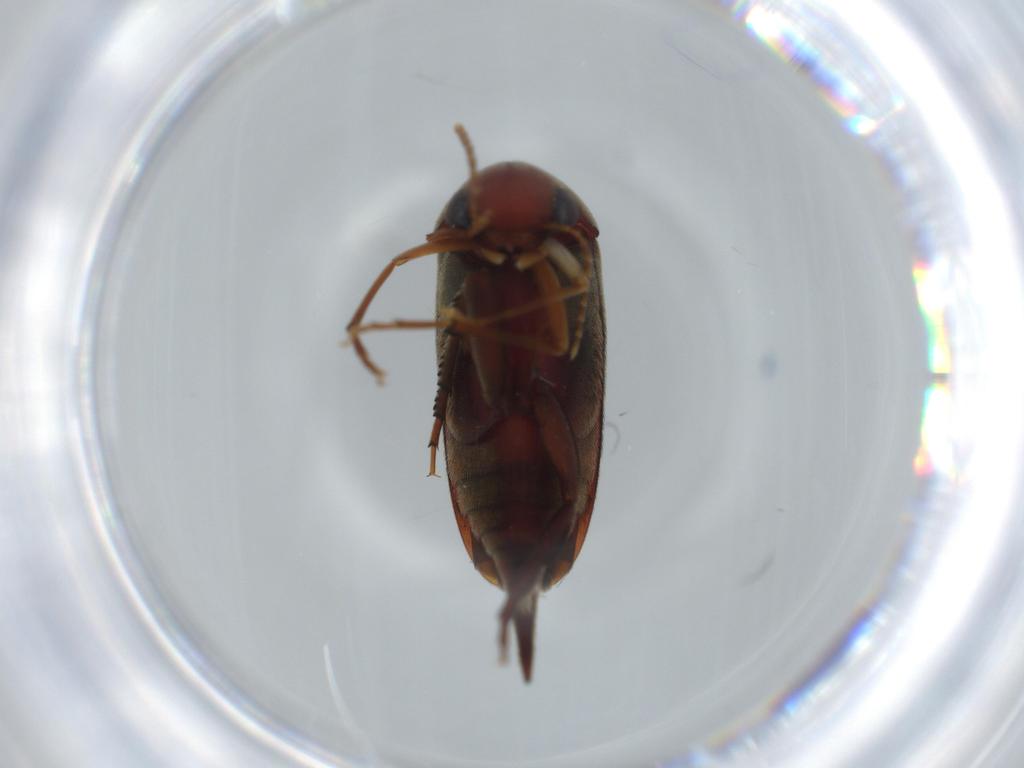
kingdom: Animalia
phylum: Arthropoda
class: Insecta
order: Coleoptera
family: Mordellidae
